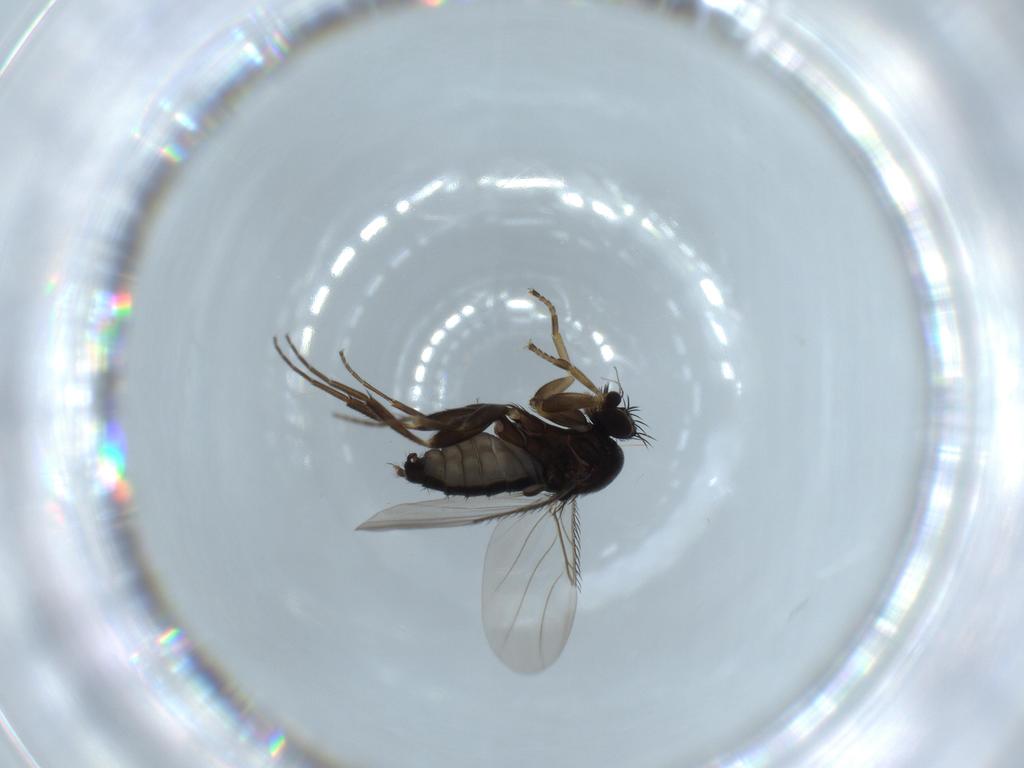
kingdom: Animalia
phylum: Arthropoda
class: Insecta
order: Diptera
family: Phoridae
